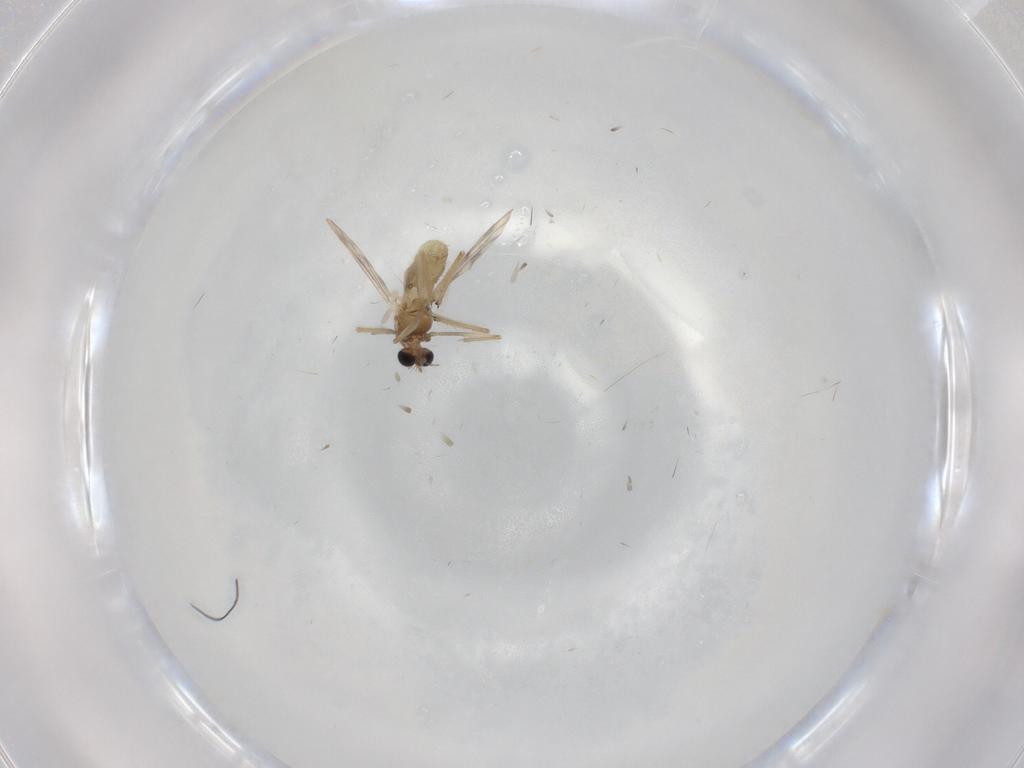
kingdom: Animalia
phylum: Arthropoda
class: Insecta
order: Diptera
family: Chironomidae
